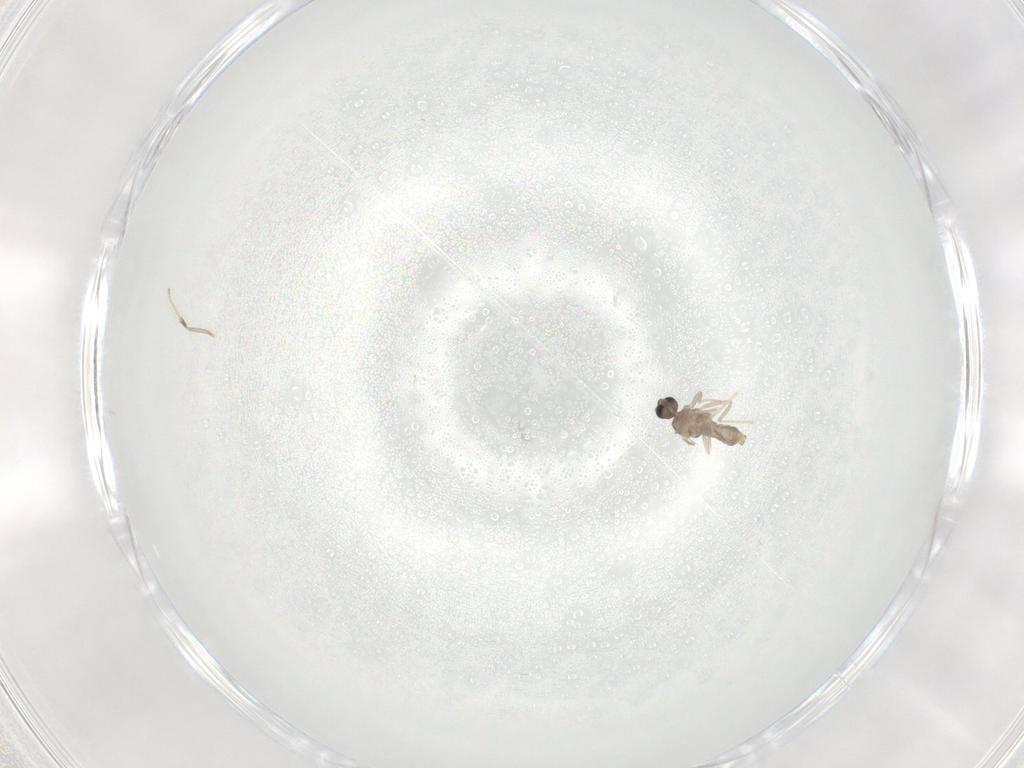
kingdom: Animalia
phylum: Arthropoda
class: Insecta
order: Diptera
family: Cecidomyiidae
